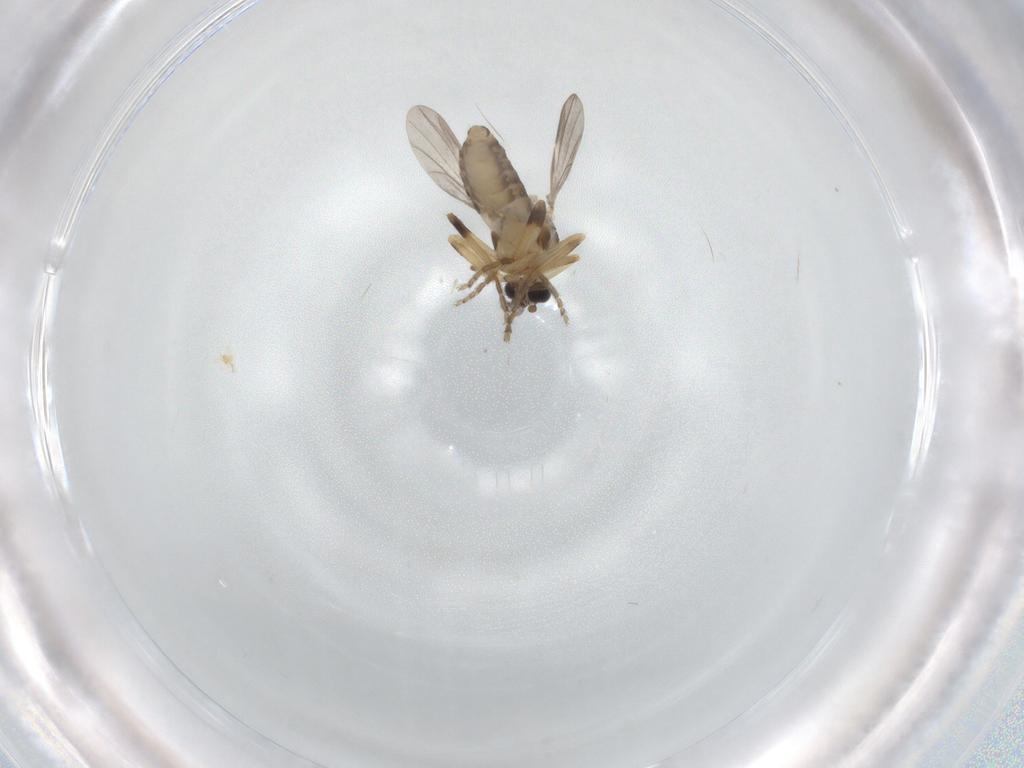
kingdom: Animalia
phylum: Arthropoda
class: Insecta
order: Diptera
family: Ceratopogonidae
